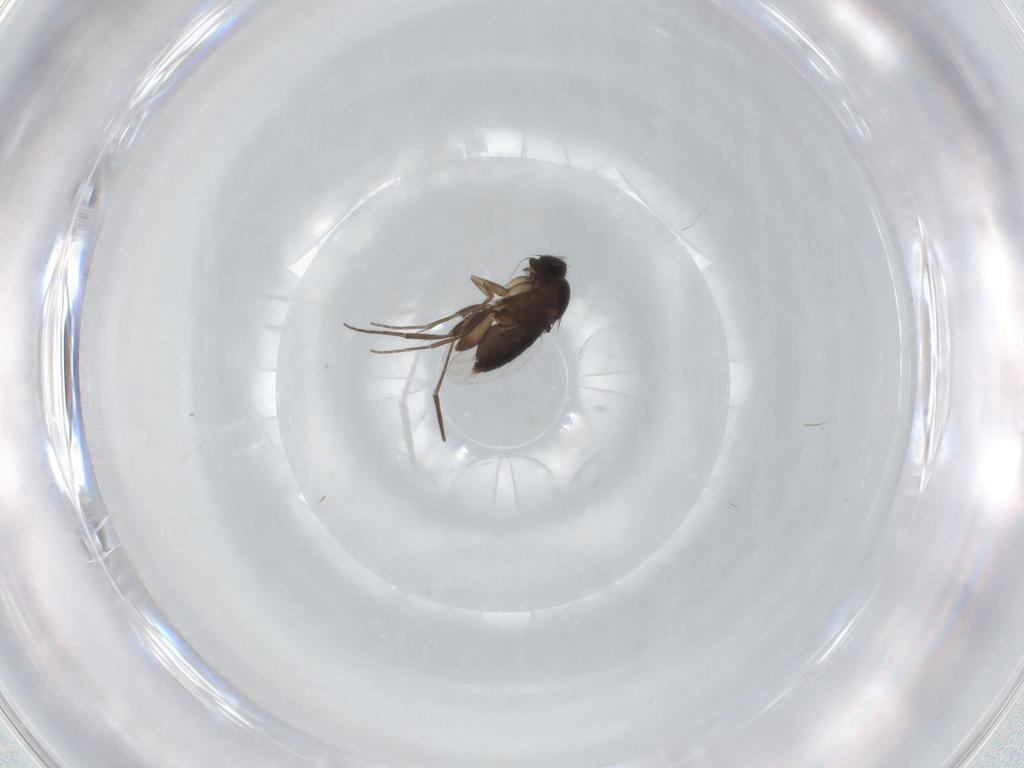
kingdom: Animalia
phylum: Arthropoda
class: Insecta
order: Diptera
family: Phoridae
